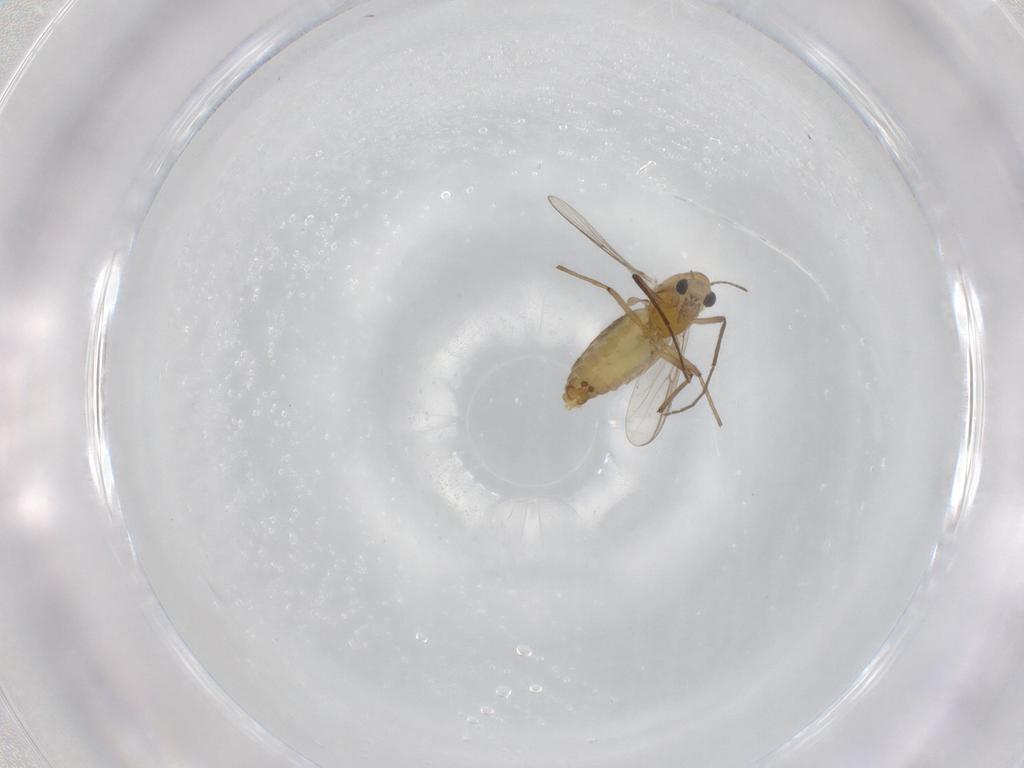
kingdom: Animalia
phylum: Arthropoda
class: Insecta
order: Diptera
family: Chironomidae
